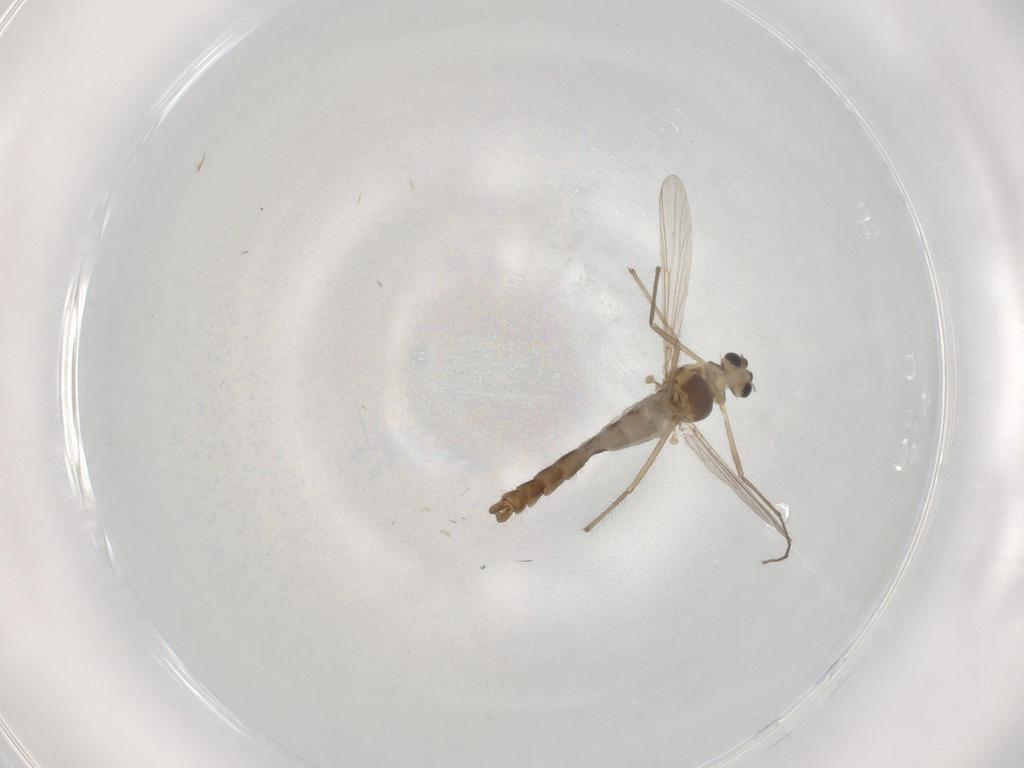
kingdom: Animalia
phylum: Arthropoda
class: Insecta
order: Diptera
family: Chironomidae
